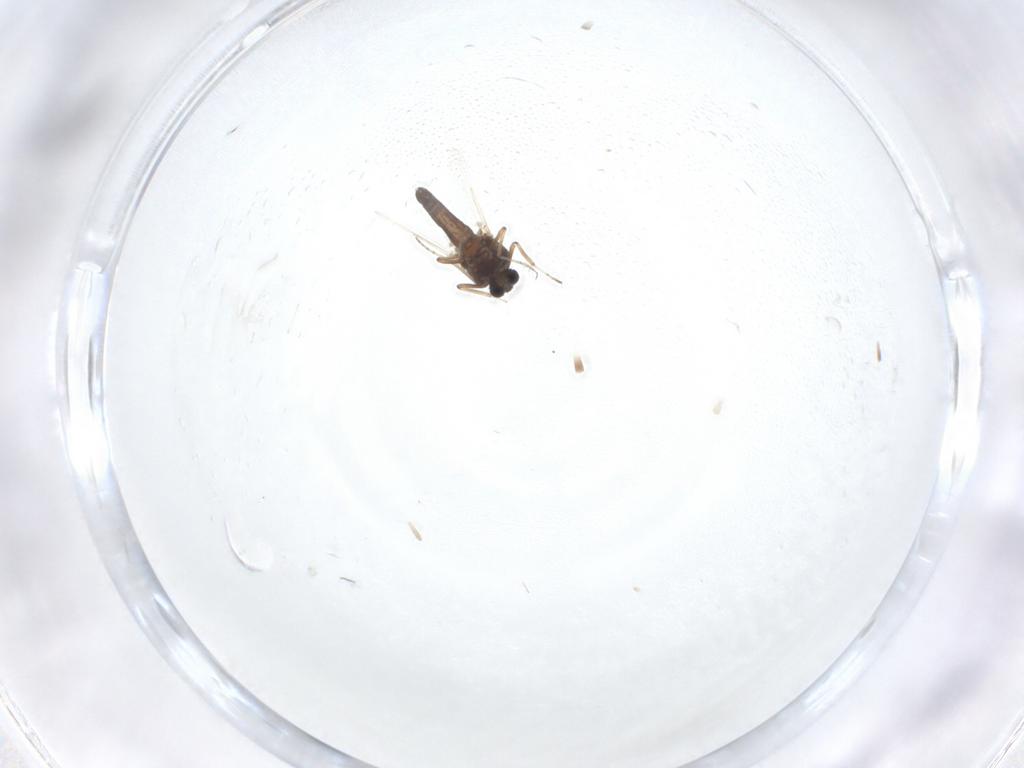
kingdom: Animalia
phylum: Arthropoda
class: Insecta
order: Diptera
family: Ceratopogonidae
